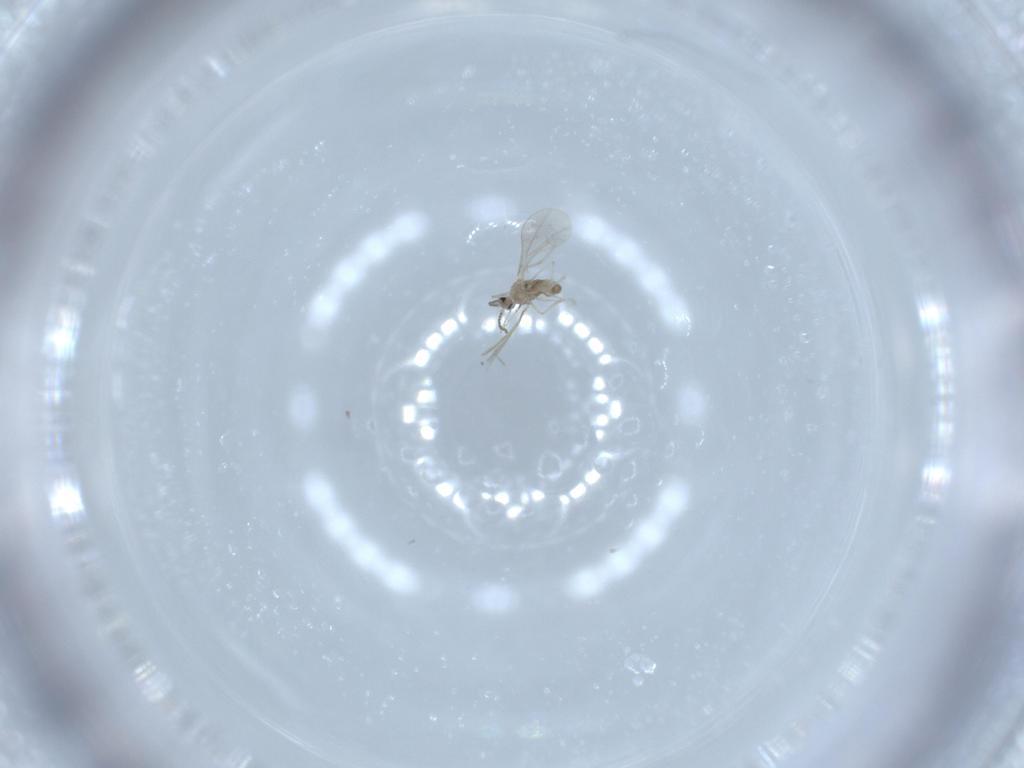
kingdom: Animalia
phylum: Arthropoda
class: Insecta
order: Diptera
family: Cecidomyiidae
